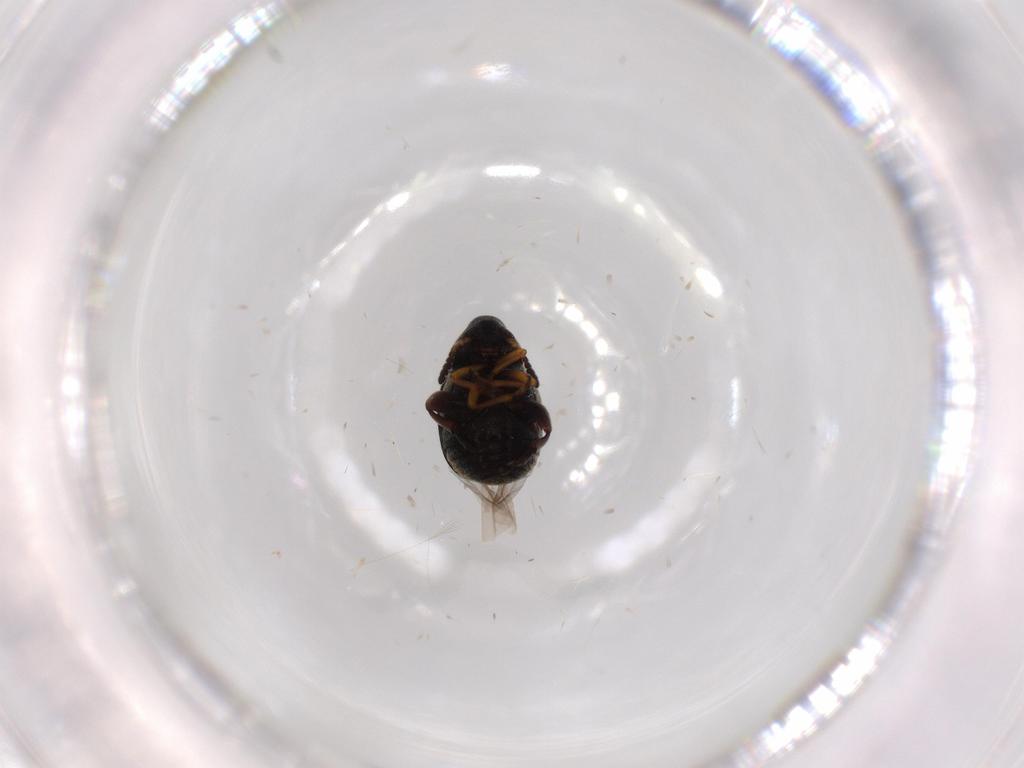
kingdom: Animalia
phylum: Arthropoda
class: Insecta
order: Coleoptera
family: Chrysomelidae
